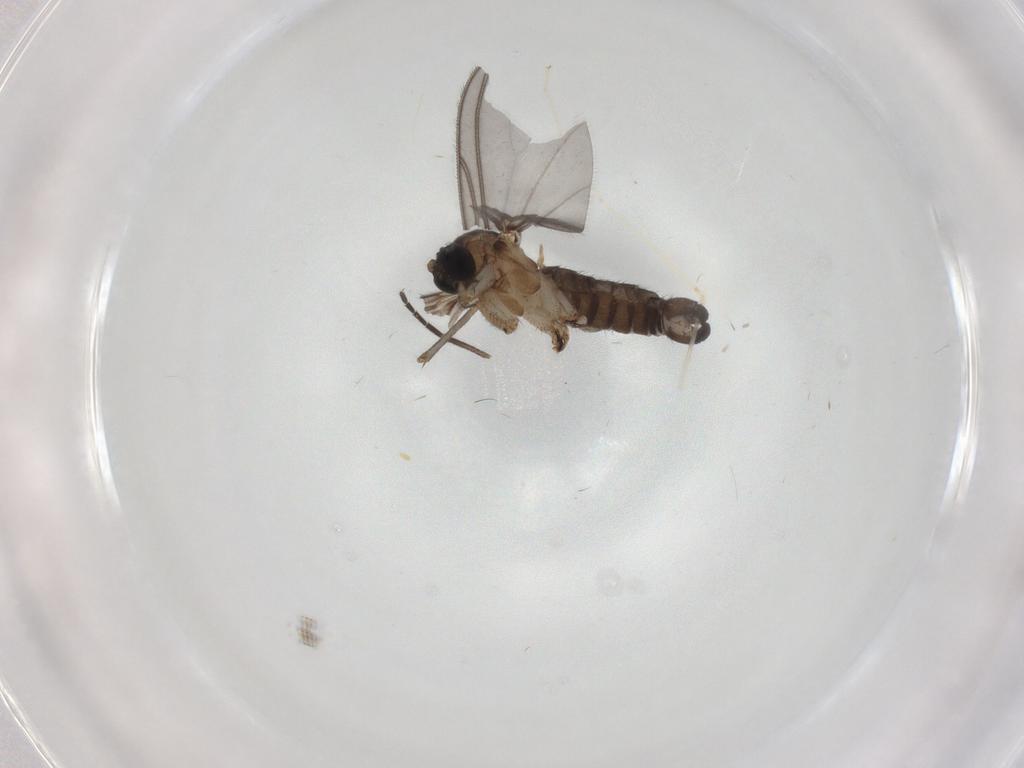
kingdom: Animalia
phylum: Arthropoda
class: Insecta
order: Diptera
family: Cecidomyiidae
